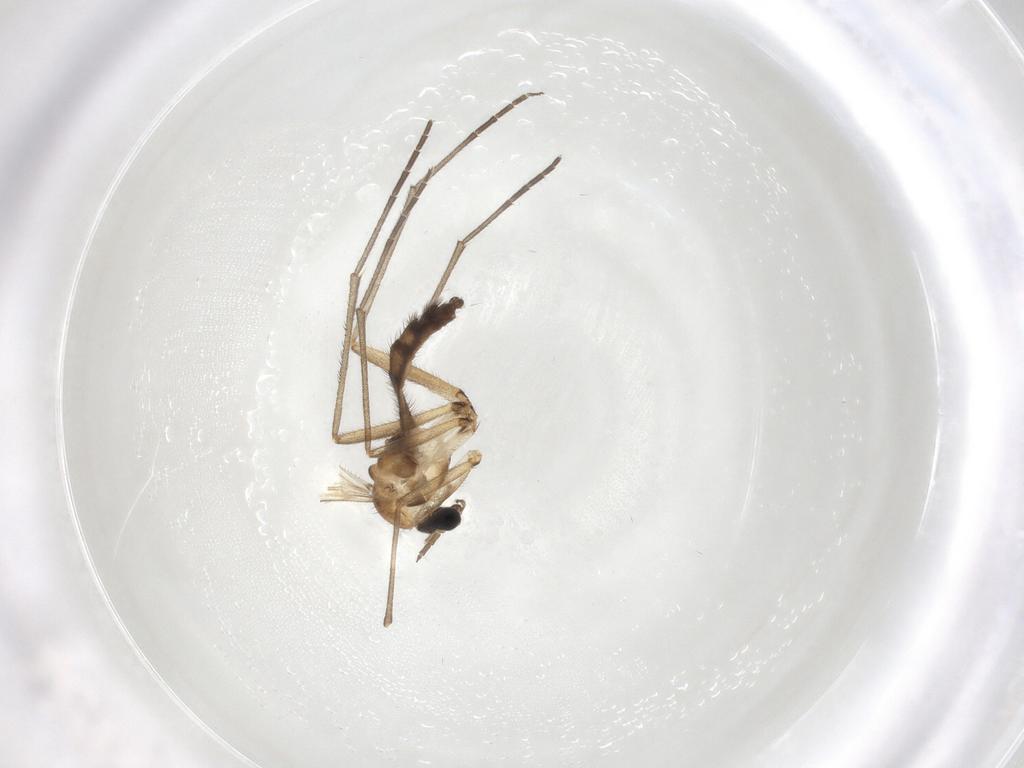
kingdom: Animalia
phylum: Arthropoda
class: Insecta
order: Diptera
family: Sciaridae
